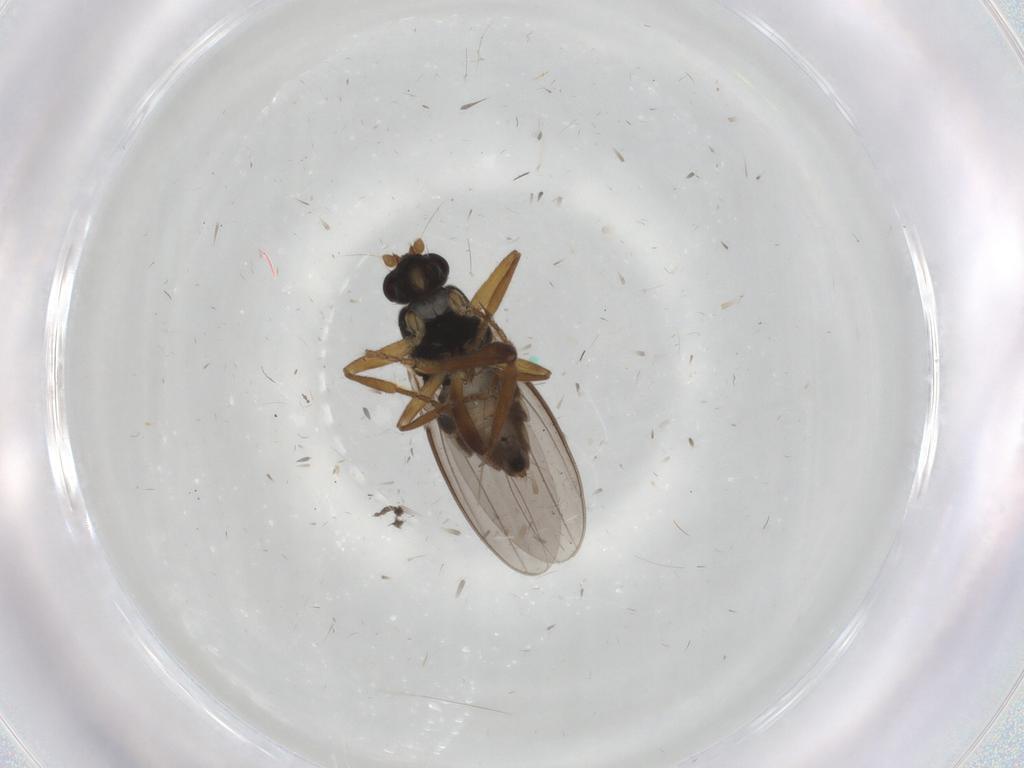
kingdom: Animalia
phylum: Arthropoda
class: Insecta
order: Diptera
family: Sphaeroceridae
